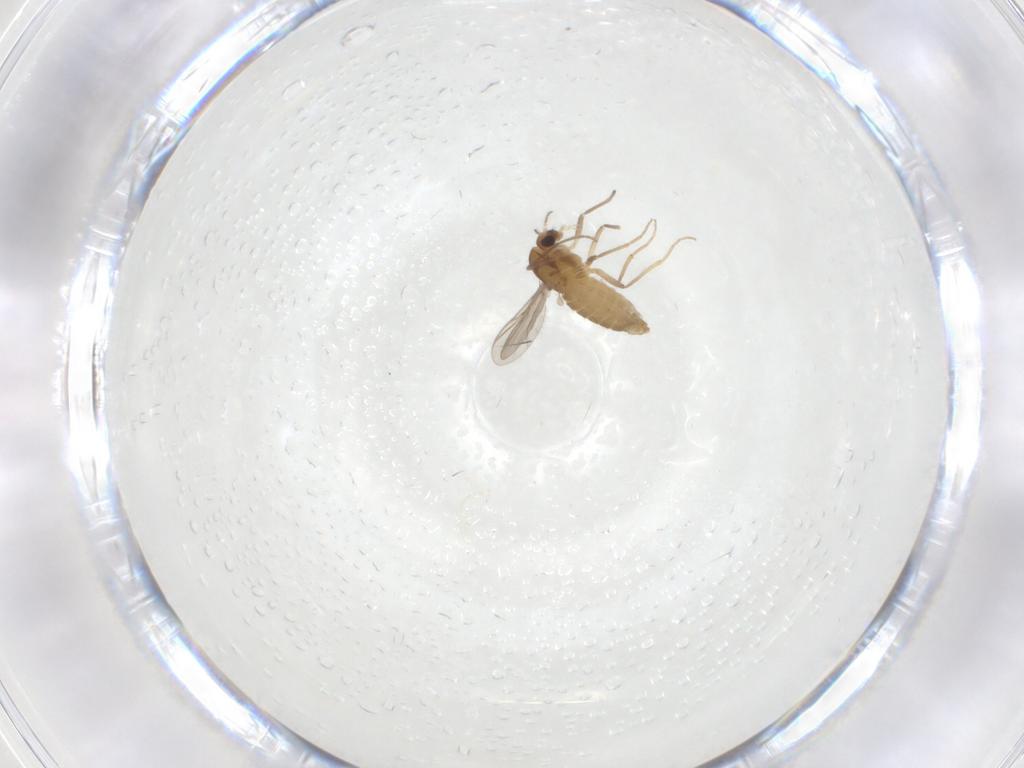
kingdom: Animalia
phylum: Arthropoda
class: Insecta
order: Diptera
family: Chironomidae
